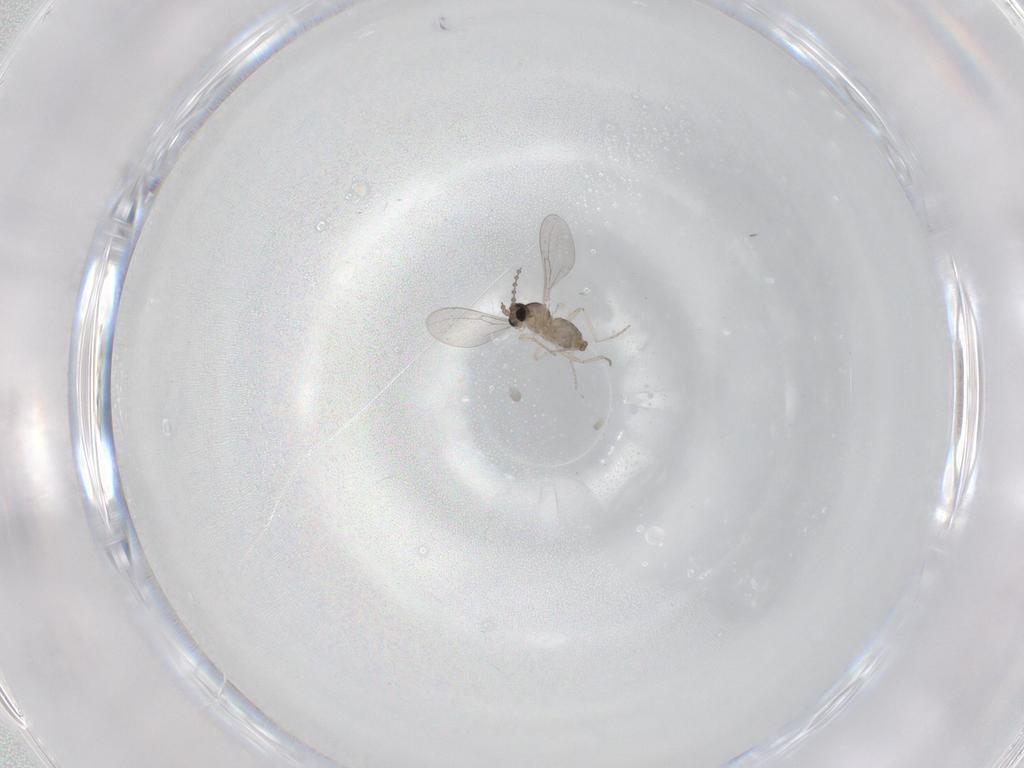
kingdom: Animalia
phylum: Arthropoda
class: Insecta
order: Diptera
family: Cecidomyiidae
